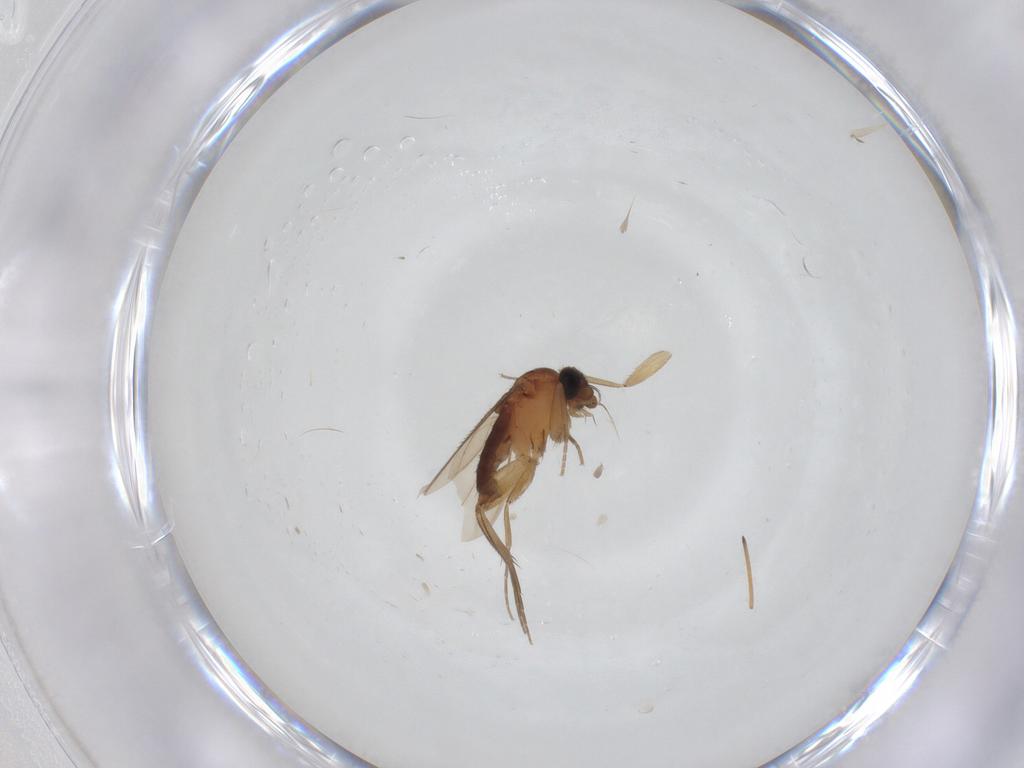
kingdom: Animalia
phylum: Arthropoda
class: Insecta
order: Diptera
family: Phoridae
